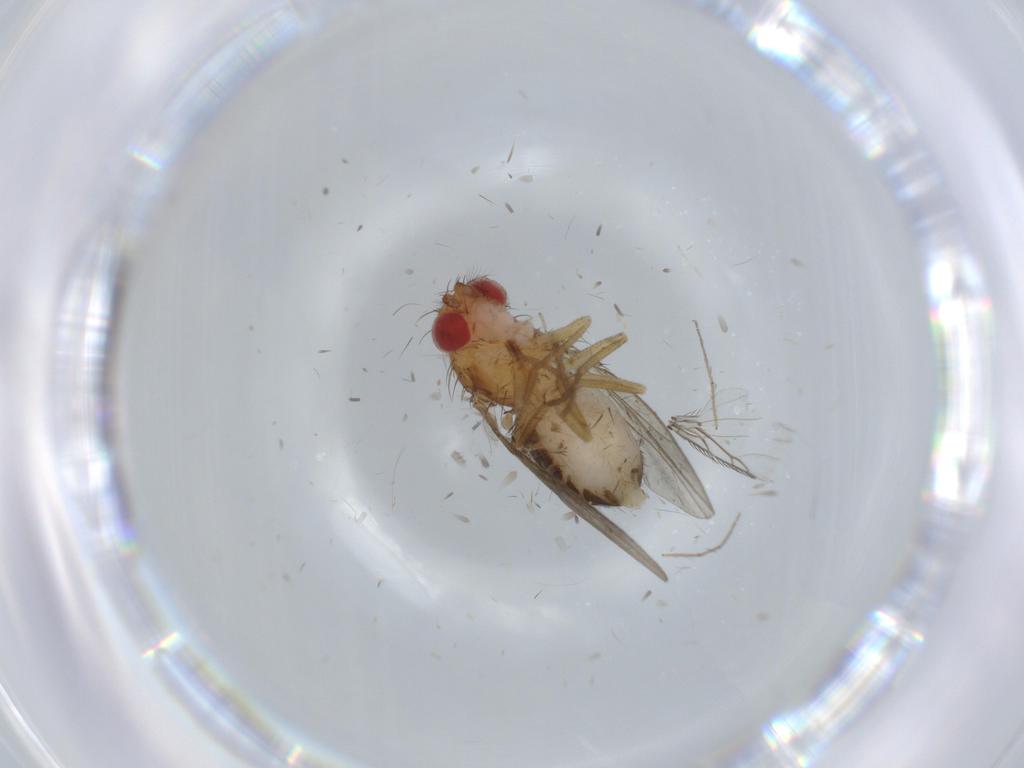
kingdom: Animalia
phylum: Arthropoda
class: Insecta
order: Diptera
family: Drosophilidae
